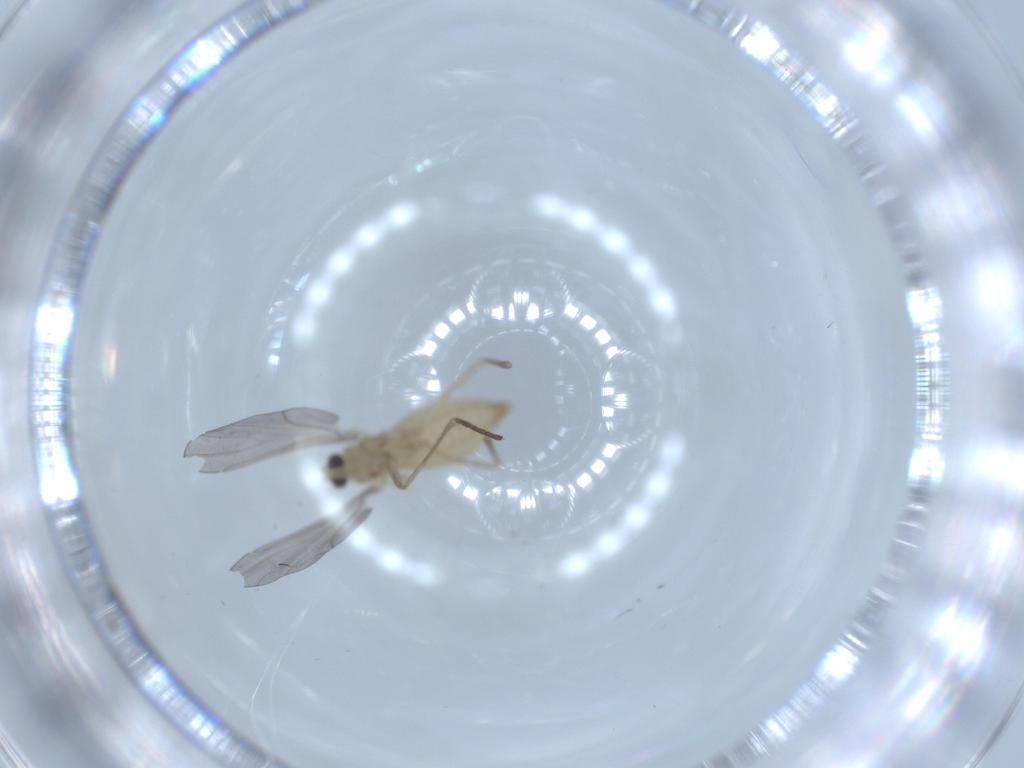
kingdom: Animalia
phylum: Arthropoda
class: Insecta
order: Diptera
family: Cecidomyiidae
